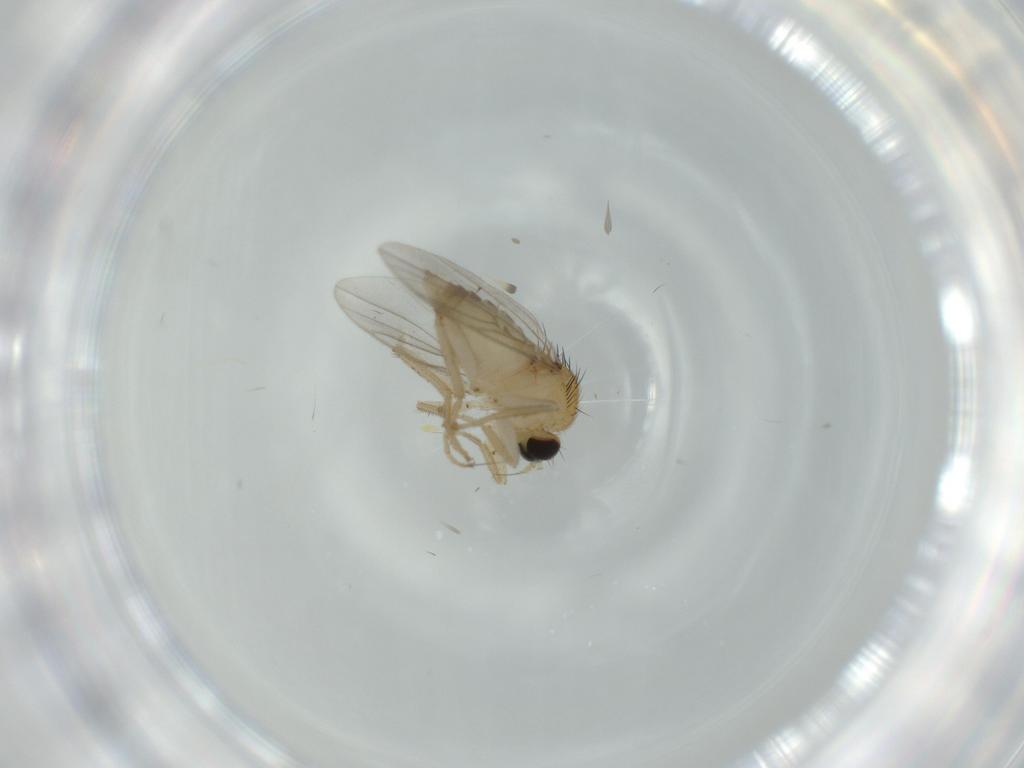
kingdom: Animalia
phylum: Arthropoda
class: Insecta
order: Diptera
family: Hybotidae
